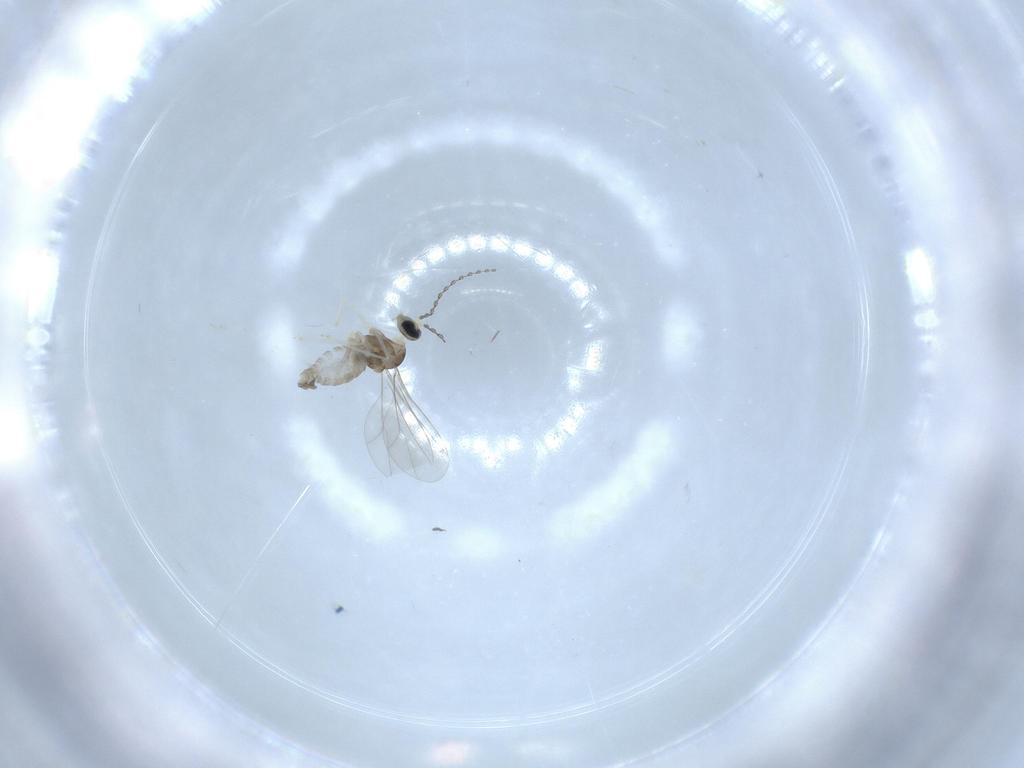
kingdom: Animalia
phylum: Arthropoda
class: Insecta
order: Diptera
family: Cecidomyiidae
